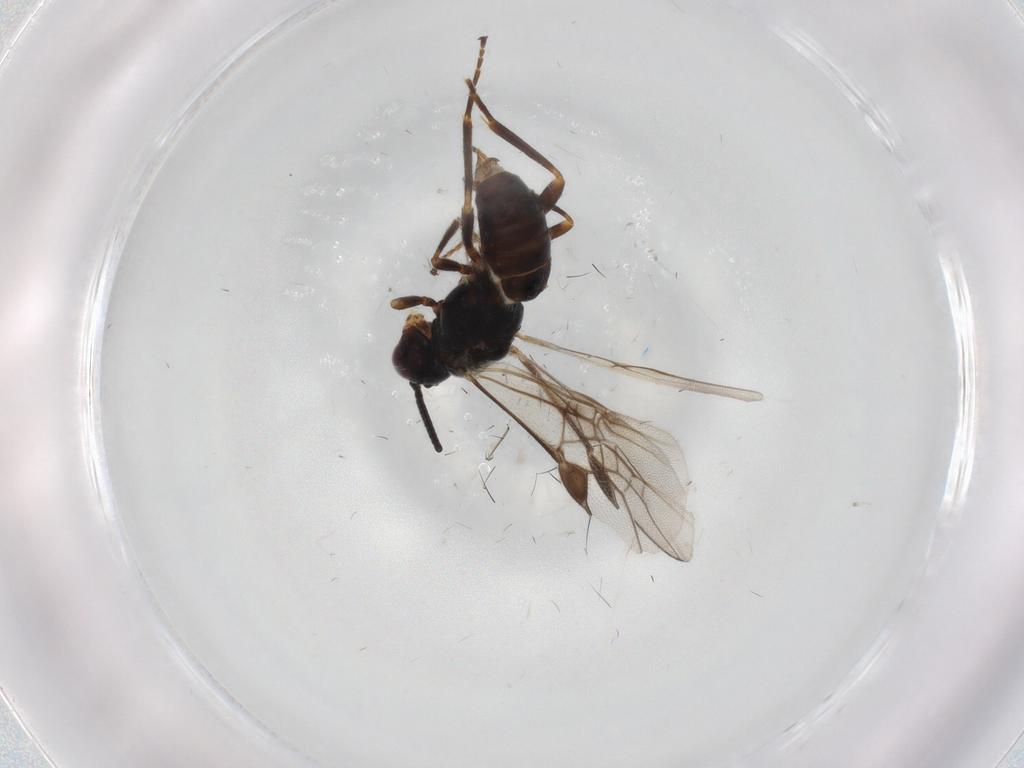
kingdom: Animalia
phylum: Arthropoda
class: Insecta
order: Hymenoptera
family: Braconidae
